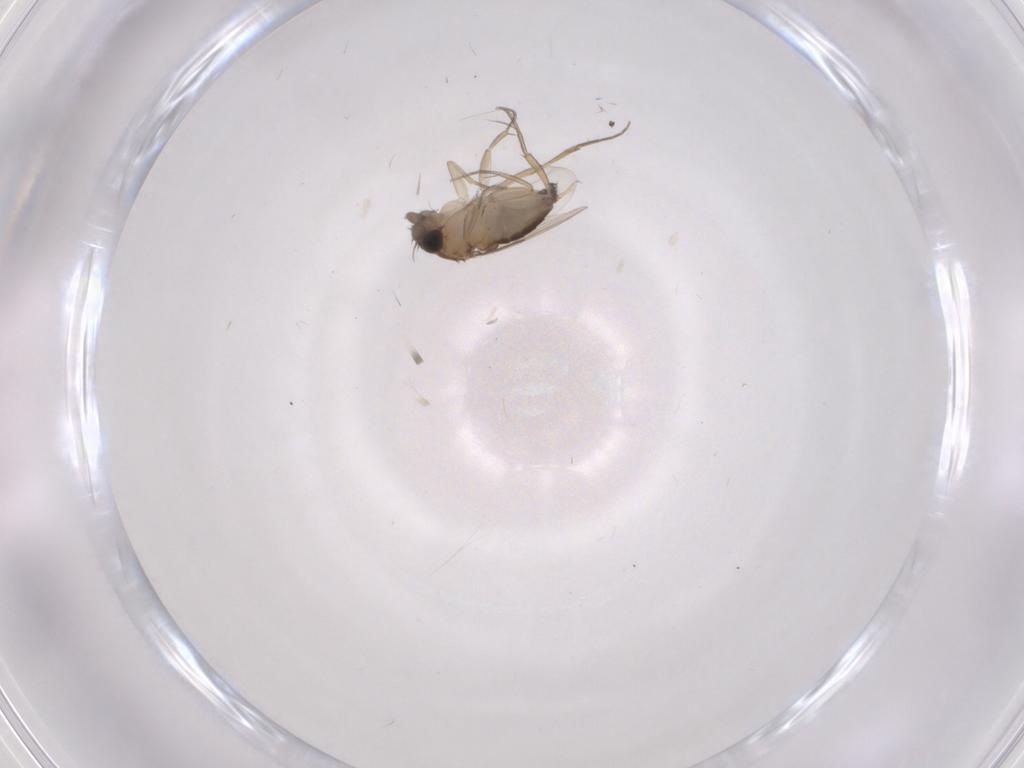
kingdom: Animalia
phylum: Arthropoda
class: Insecta
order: Diptera
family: Phoridae
